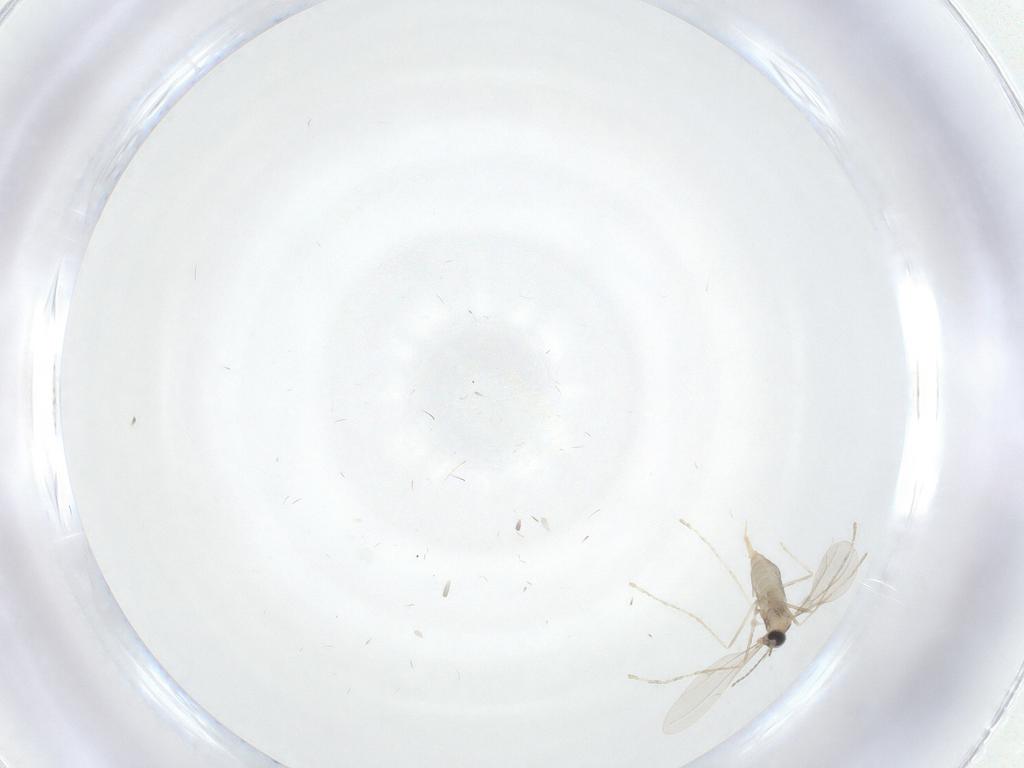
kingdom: Animalia
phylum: Arthropoda
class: Insecta
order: Diptera
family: Cecidomyiidae
